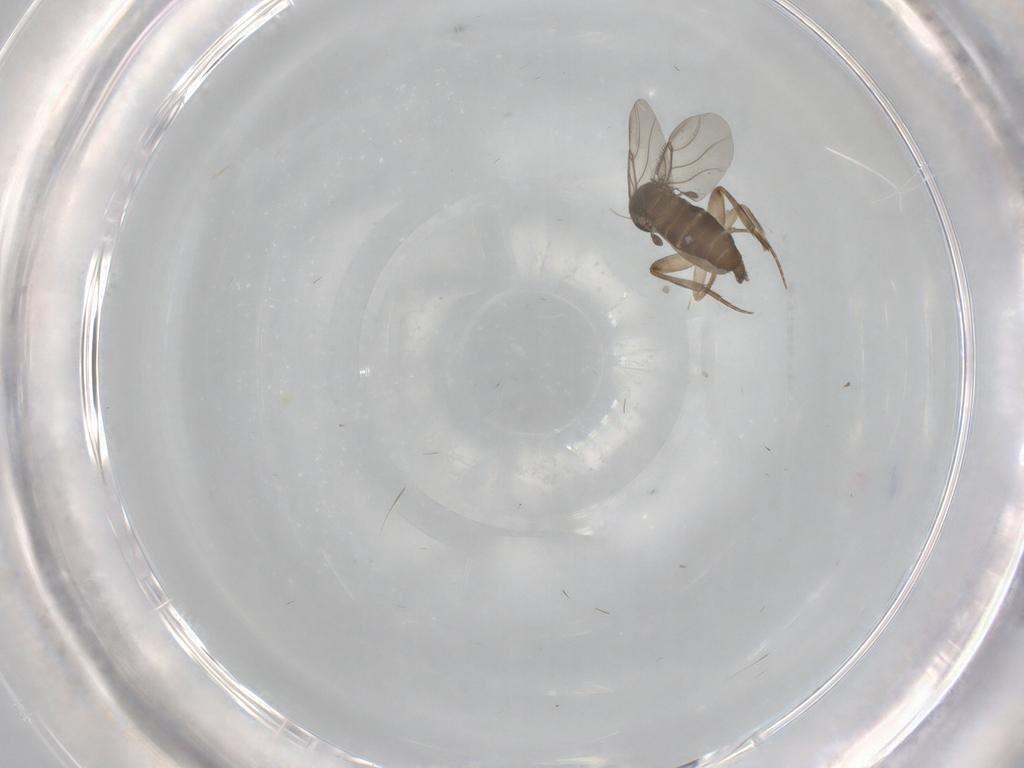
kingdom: Animalia
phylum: Arthropoda
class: Insecta
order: Diptera
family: Phoridae
